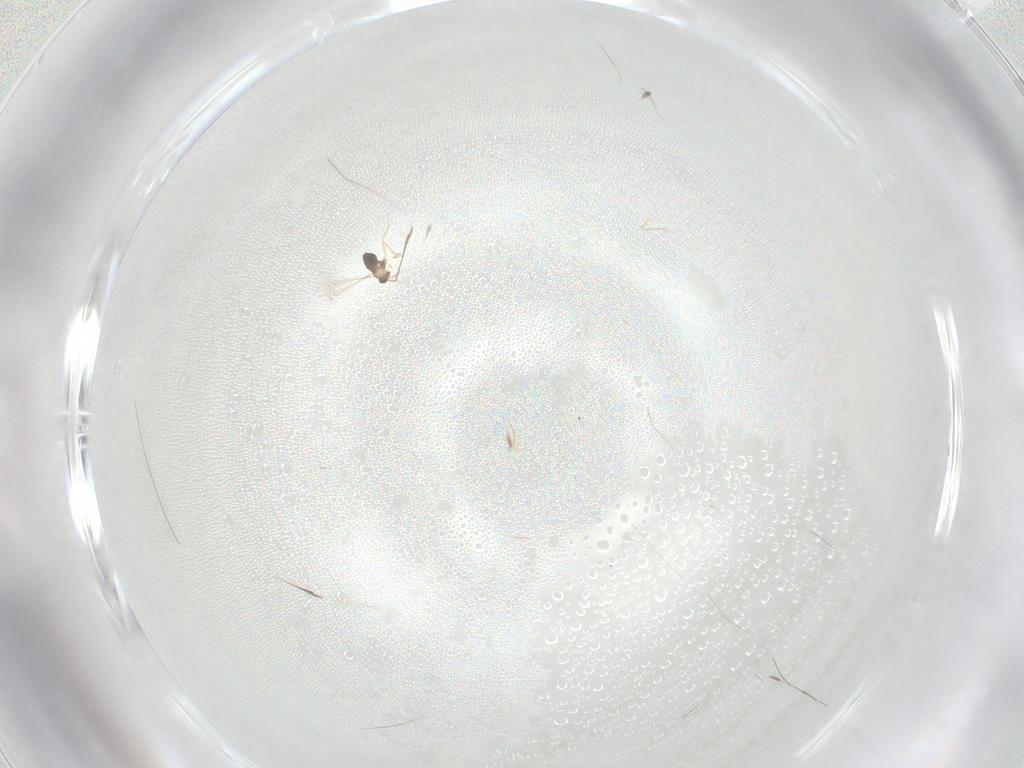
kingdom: Animalia
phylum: Arthropoda
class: Insecta
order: Hymenoptera
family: Mymaridae
